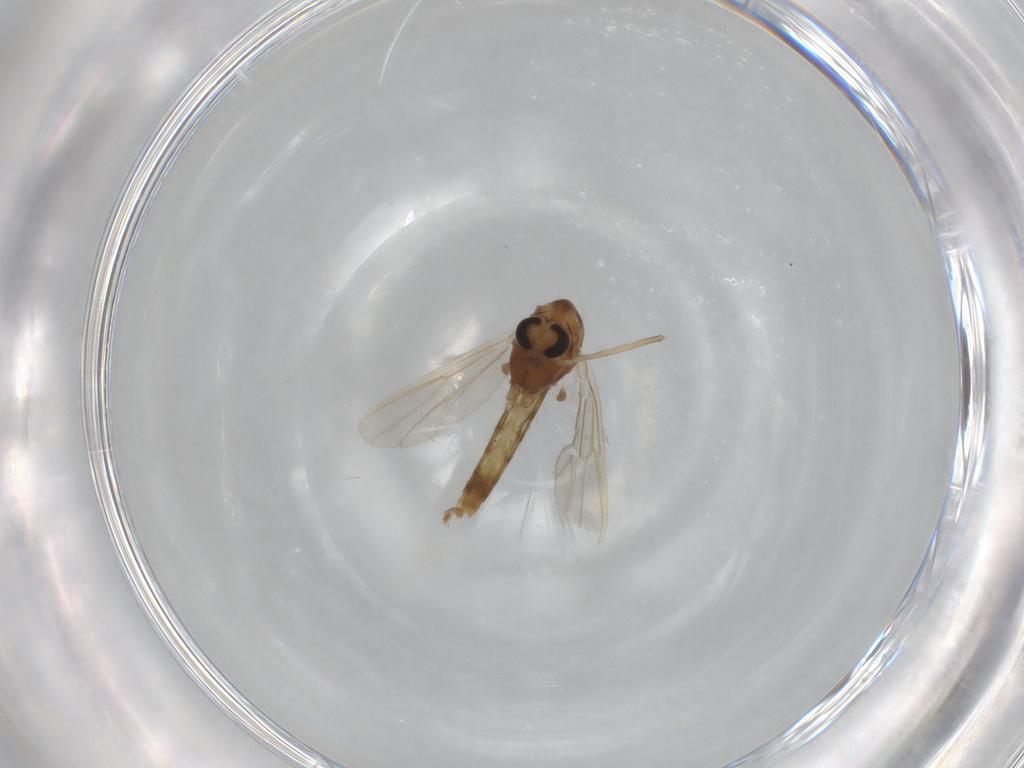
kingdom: Animalia
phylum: Arthropoda
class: Insecta
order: Diptera
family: Chironomidae
